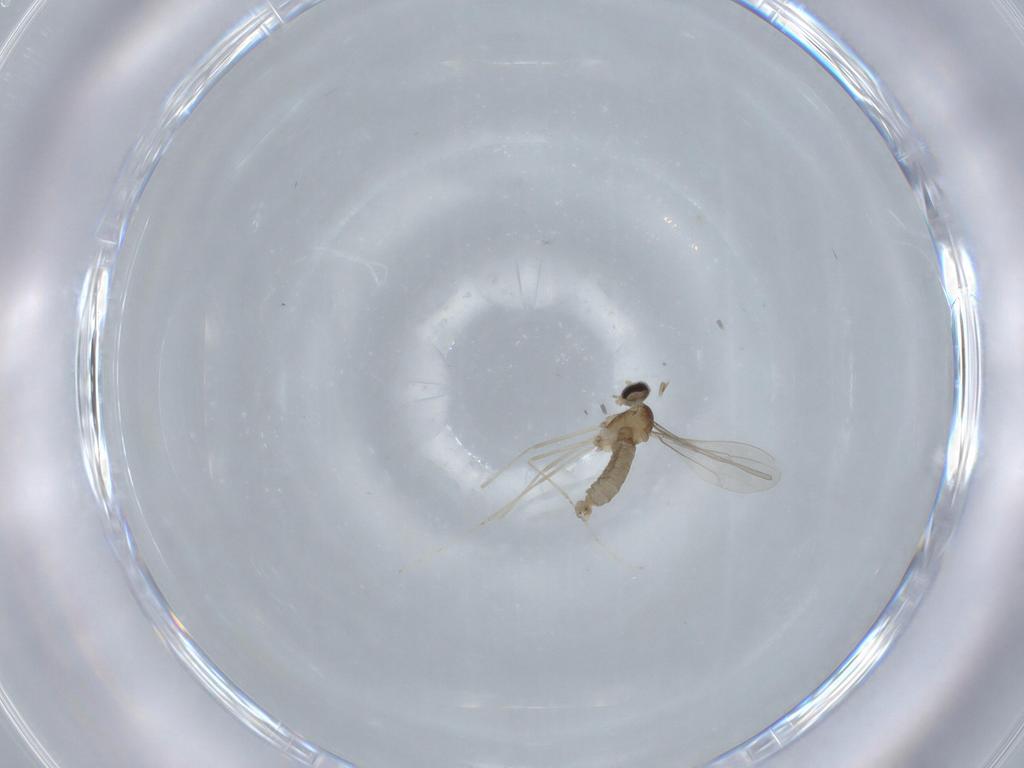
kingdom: Animalia
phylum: Arthropoda
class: Insecta
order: Diptera
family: Cecidomyiidae
